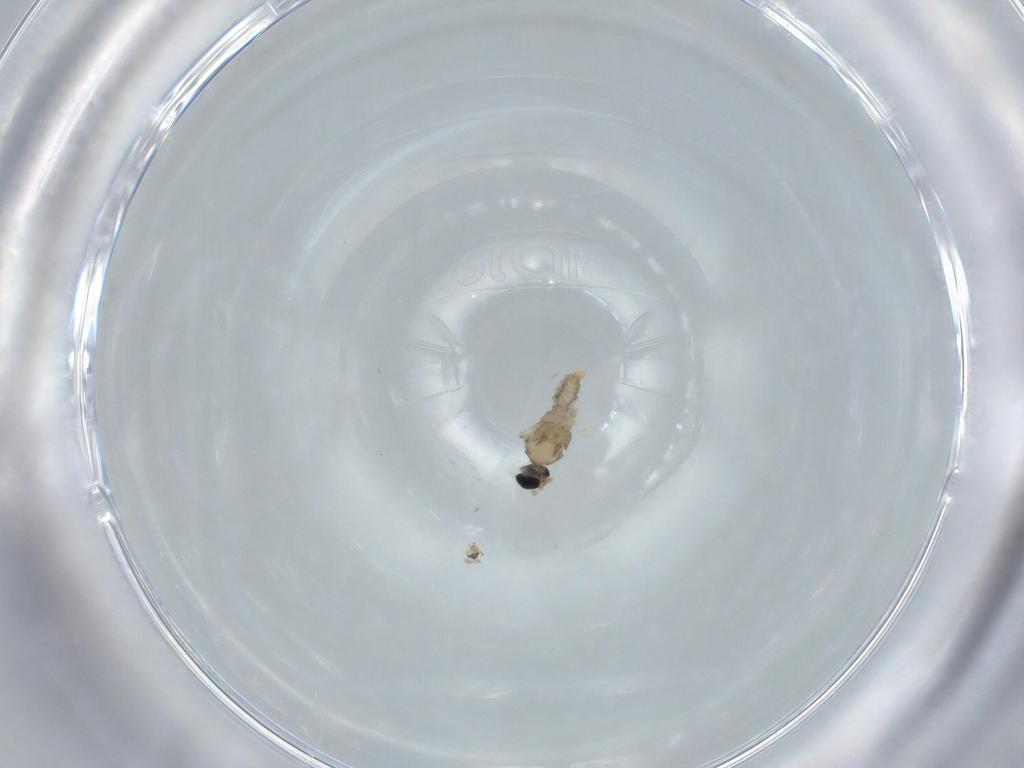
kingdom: Animalia
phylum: Arthropoda
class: Insecta
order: Diptera
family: Cecidomyiidae
